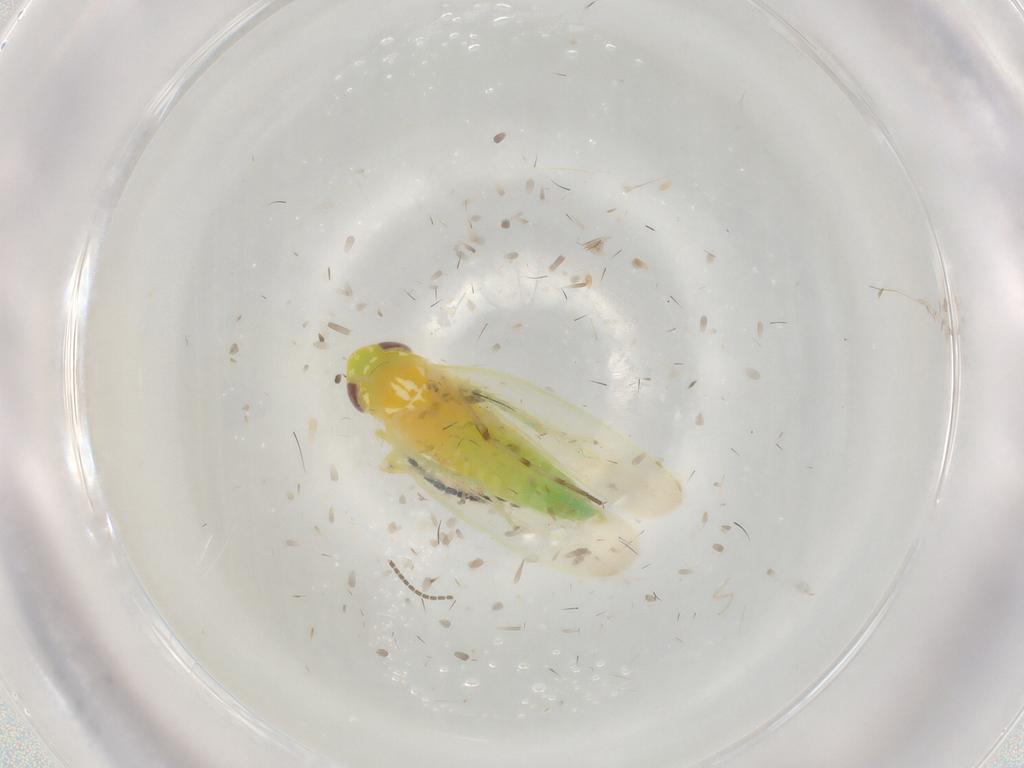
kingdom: Animalia
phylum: Arthropoda
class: Insecta
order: Hemiptera
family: Cicadellidae
